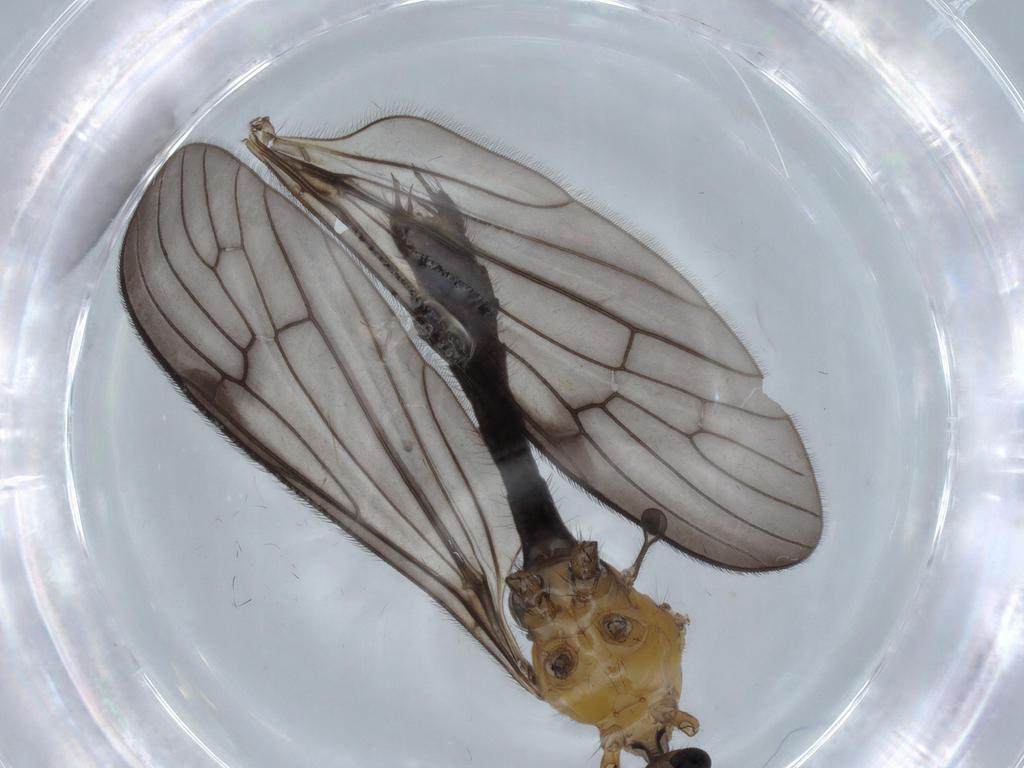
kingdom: Animalia
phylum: Arthropoda
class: Insecta
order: Diptera
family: Limoniidae
